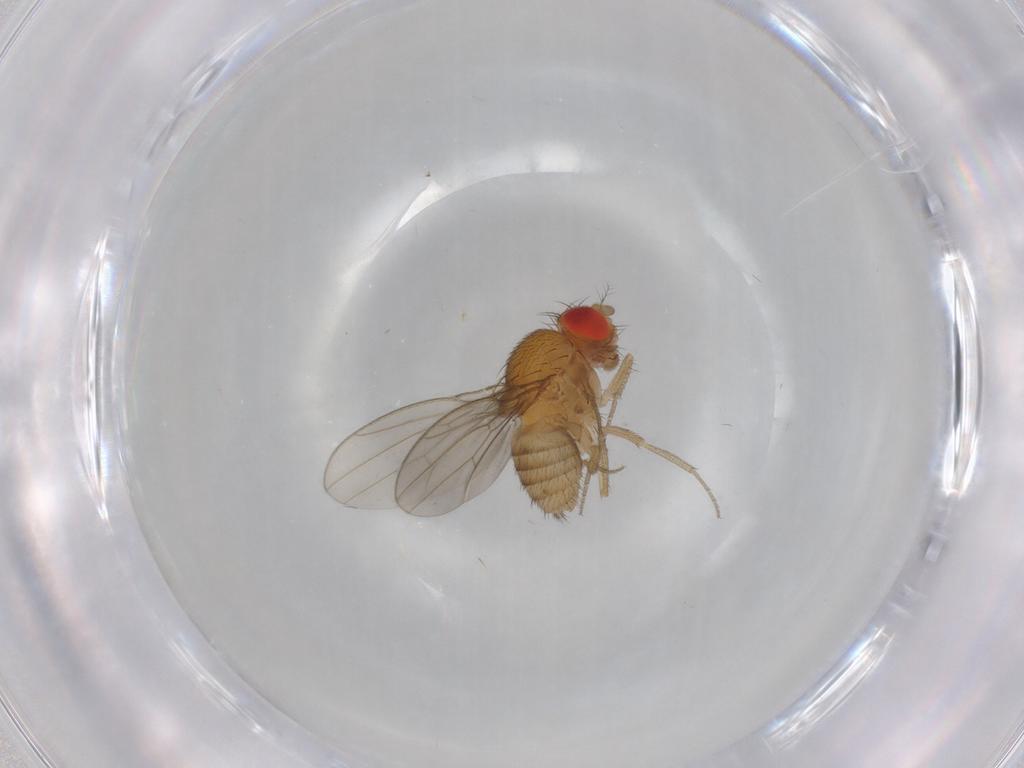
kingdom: Animalia
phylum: Arthropoda
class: Insecta
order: Diptera
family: Drosophilidae
